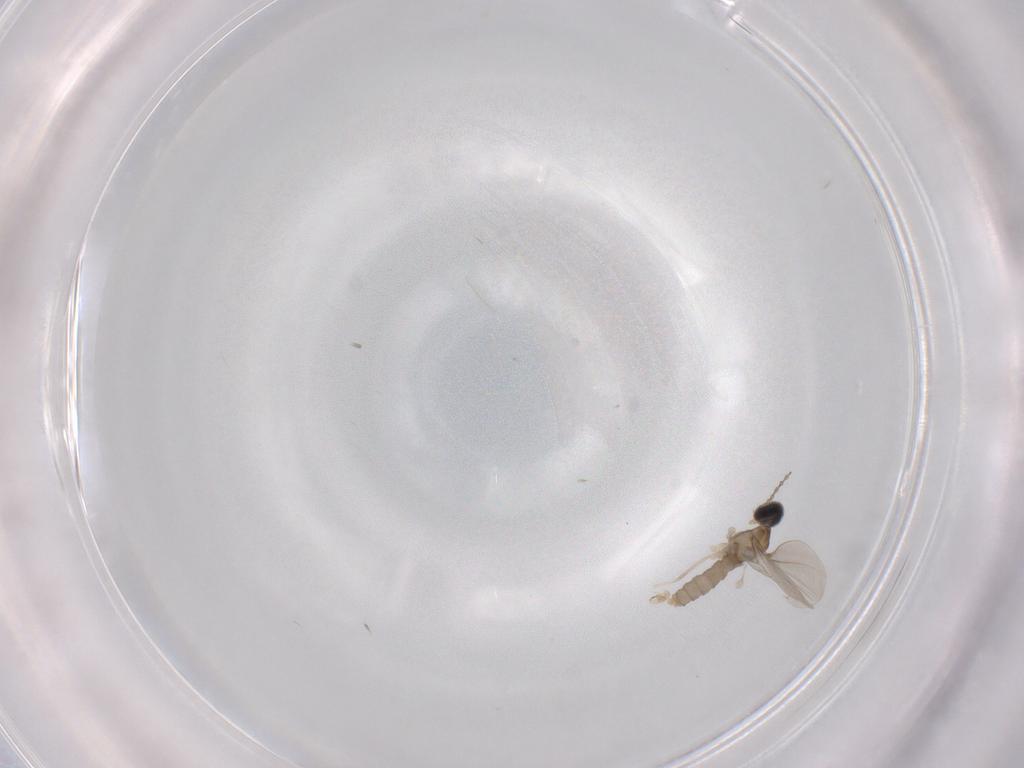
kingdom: Animalia
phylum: Arthropoda
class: Insecta
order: Diptera
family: Cecidomyiidae
